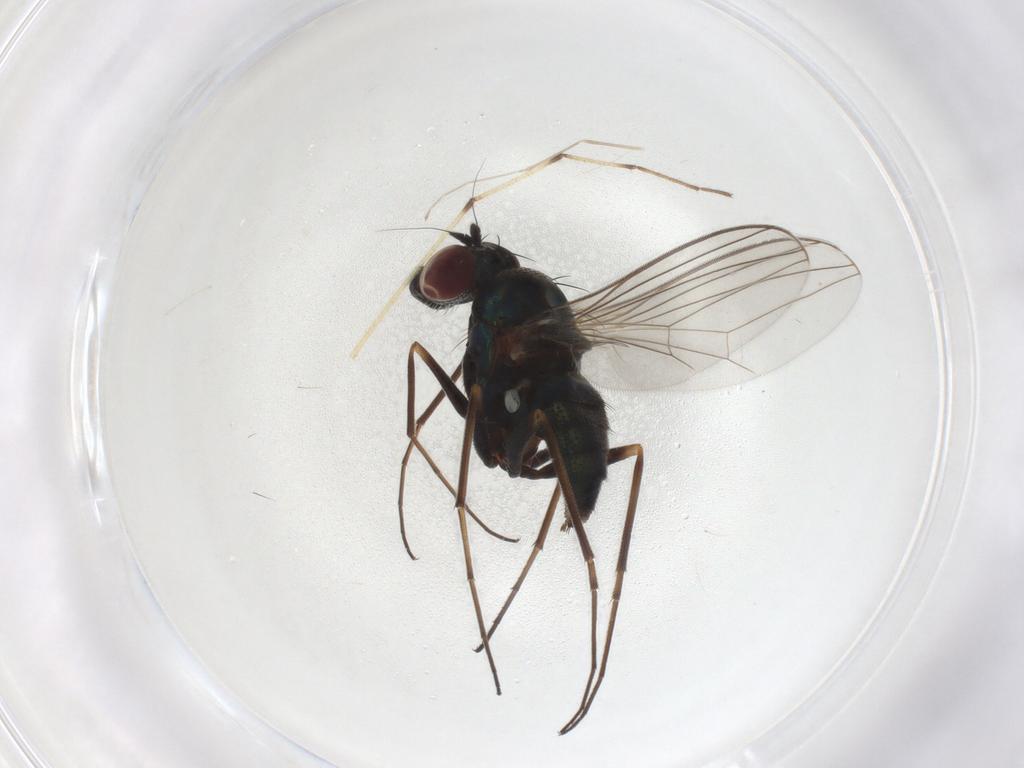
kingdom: Animalia
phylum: Arthropoda
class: Insecta
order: Diptera
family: Dolichopodidae
